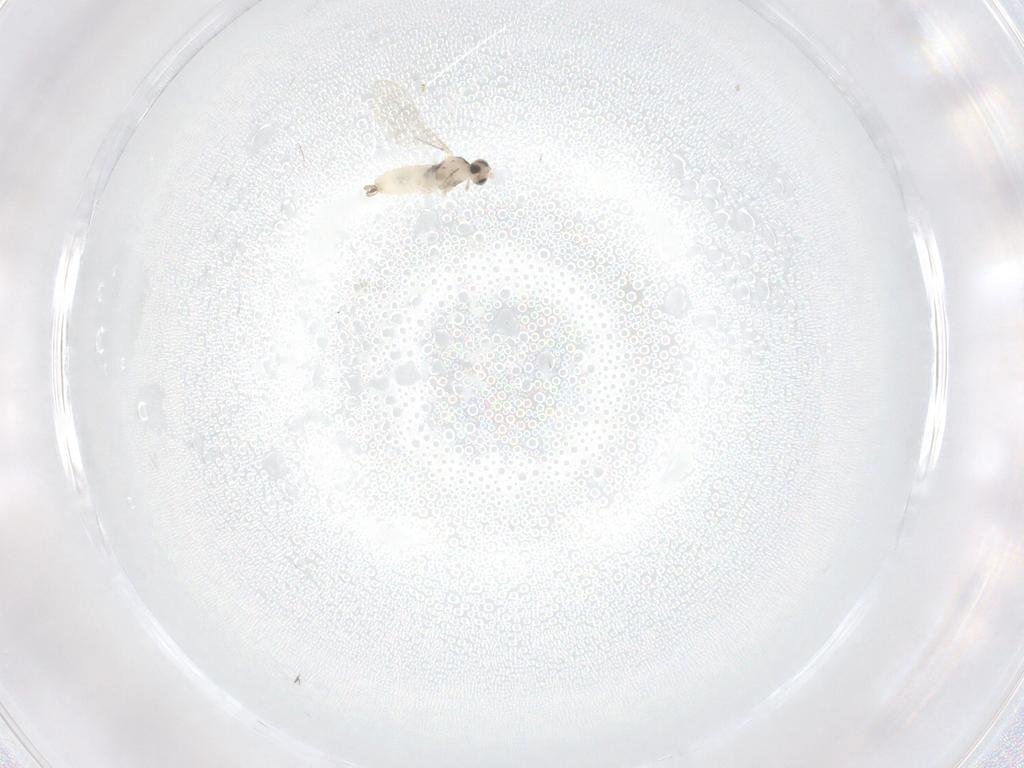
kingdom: Animalia
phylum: Arthropoda
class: Insecta
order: Diptera
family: Cecidomyiidae
